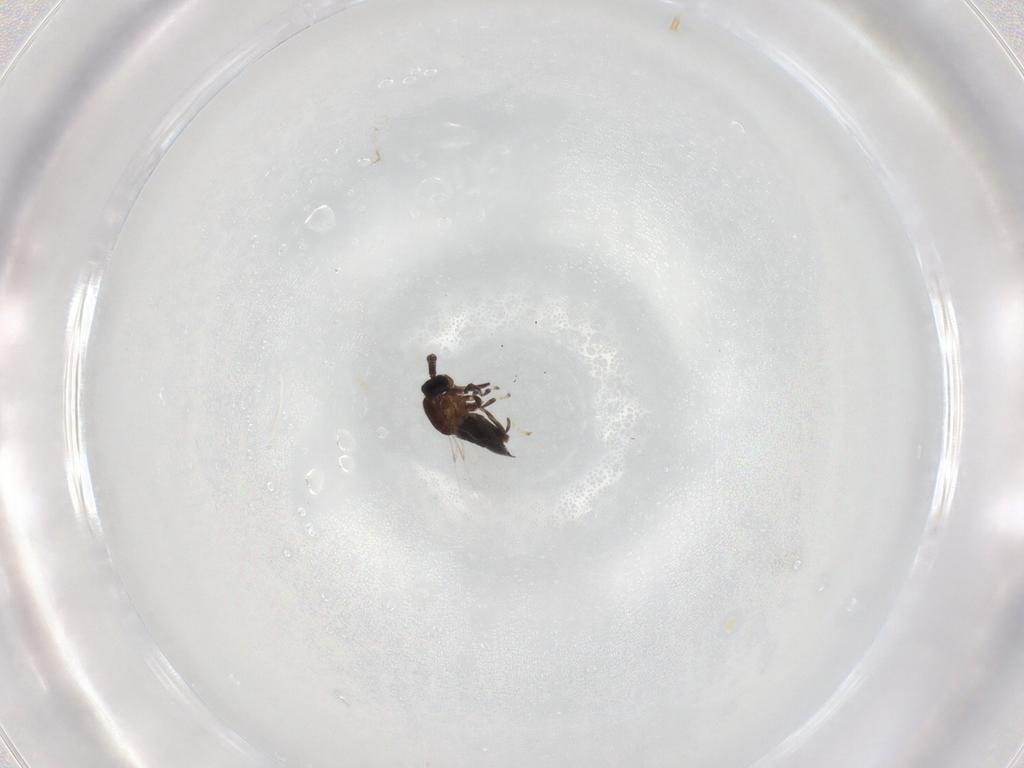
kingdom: Animalia
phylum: Arthropoda
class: Insecta
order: Diptera
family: Scatopsidae
